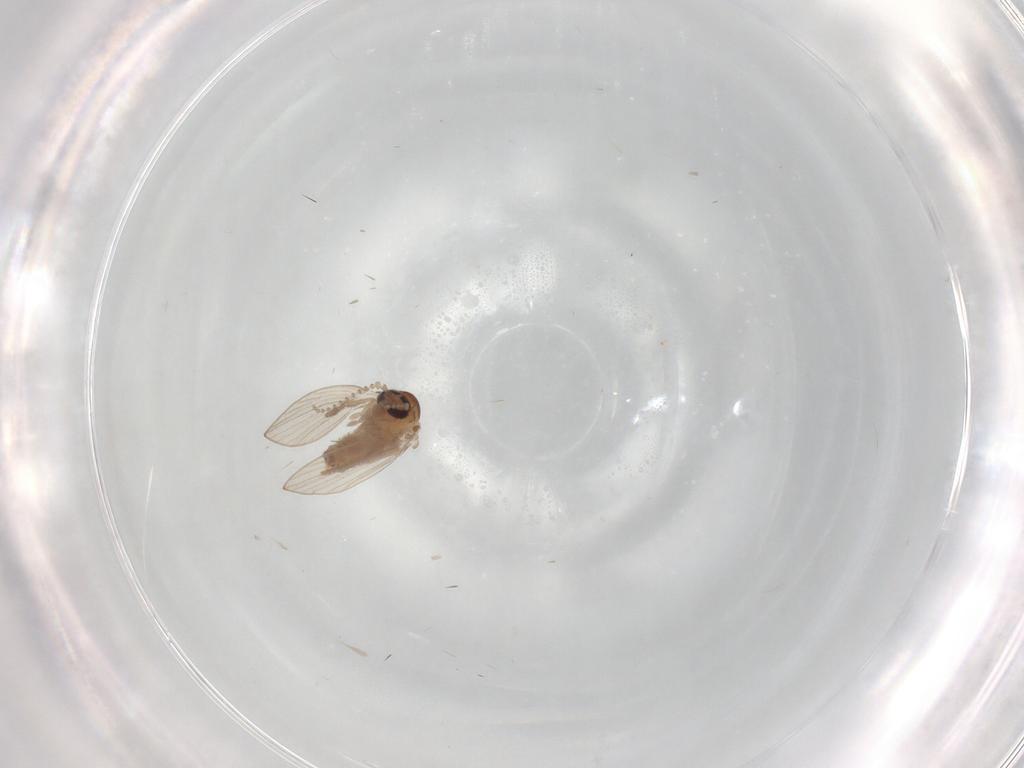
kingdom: Animalia
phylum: Arthropoda
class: Insecta
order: Diptera
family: Psychodidae
